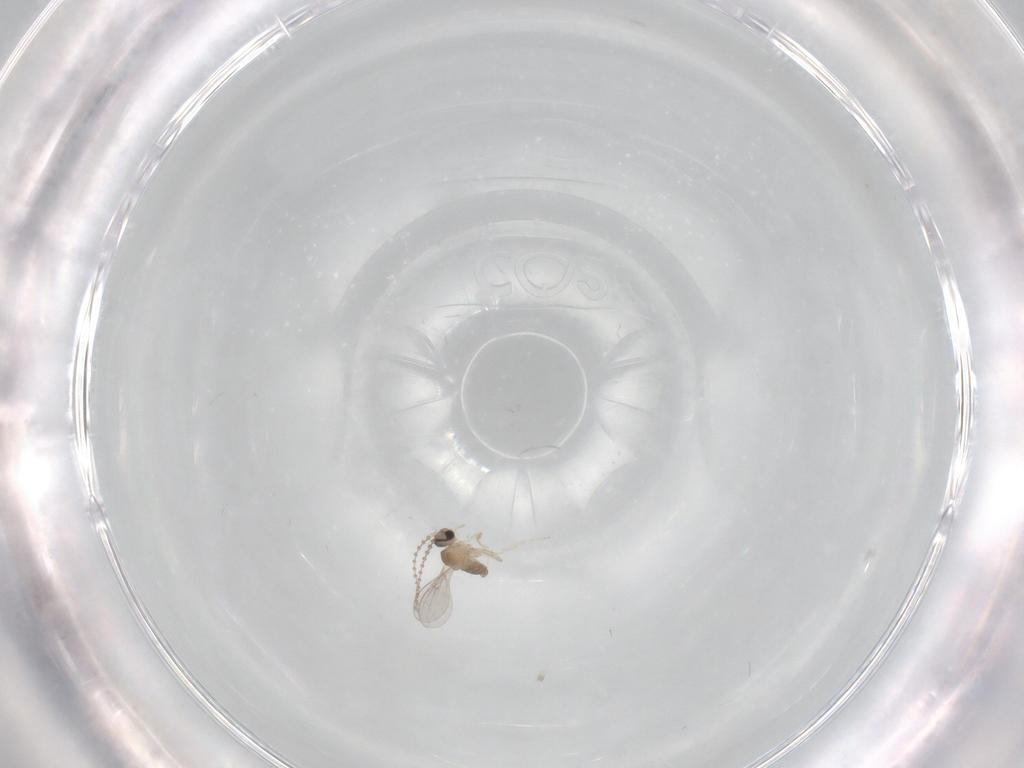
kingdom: Animalia
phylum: Arthropoda
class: Insecta
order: Diptera
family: Cecidomyiidae
